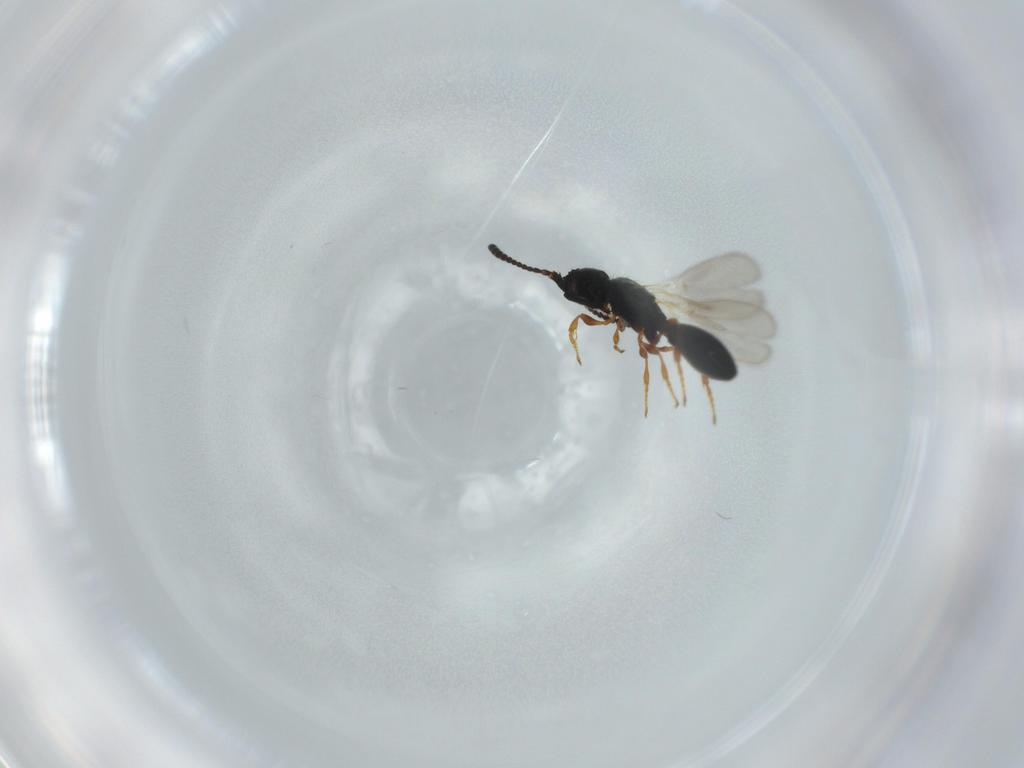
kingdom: Animalia
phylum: Arthropoda
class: Insecta
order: Hymenoptera
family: Diapriidae
